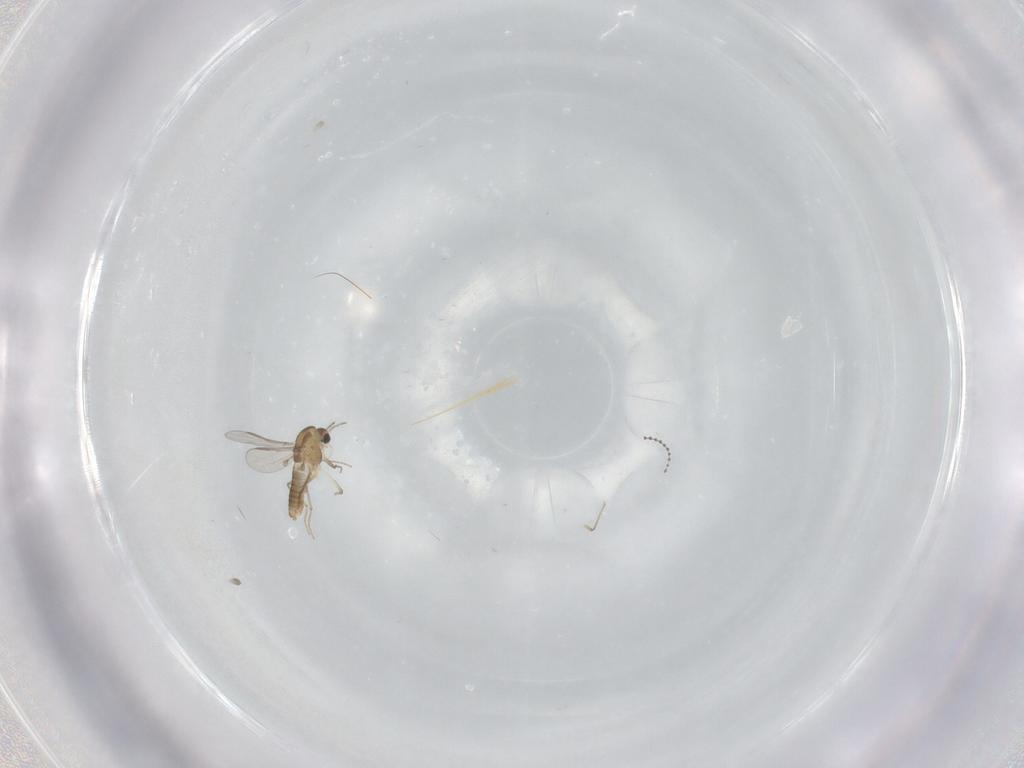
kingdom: Animalia
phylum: Arthropoda
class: Insecta
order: Diptera
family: Chironomidae
